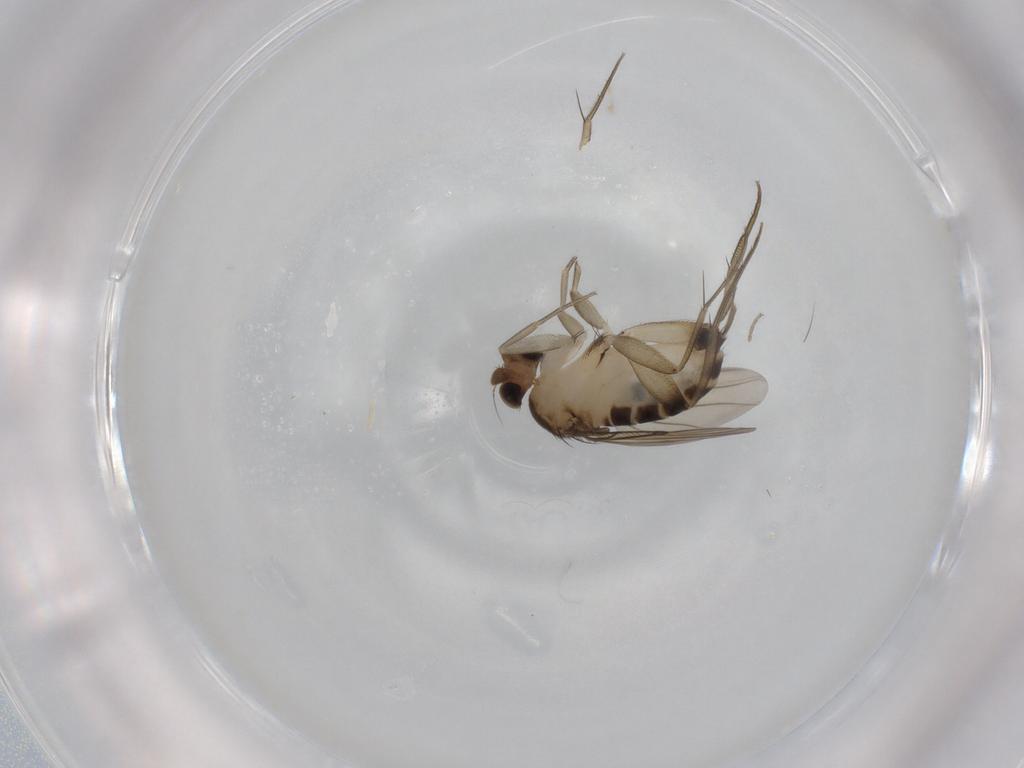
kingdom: Animalia
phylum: Arthropoda
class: Insecta
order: Diptera
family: Phoridae
